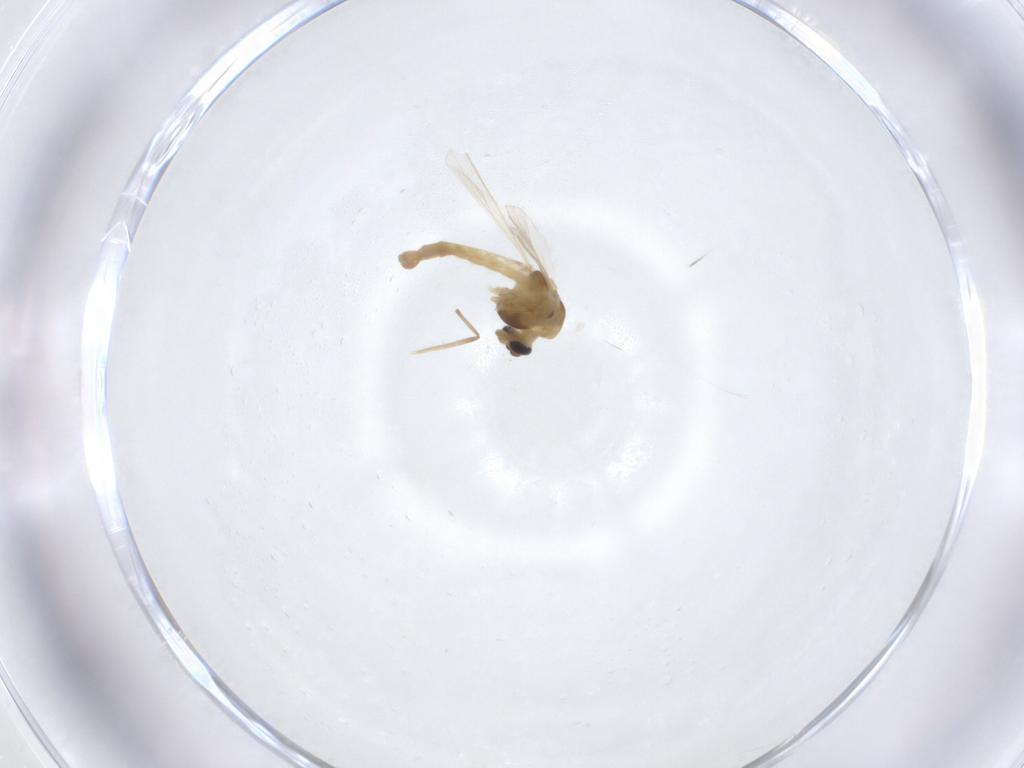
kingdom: Animalia
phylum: Arthropoda
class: Insecta
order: Diptera
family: Chironomidae
